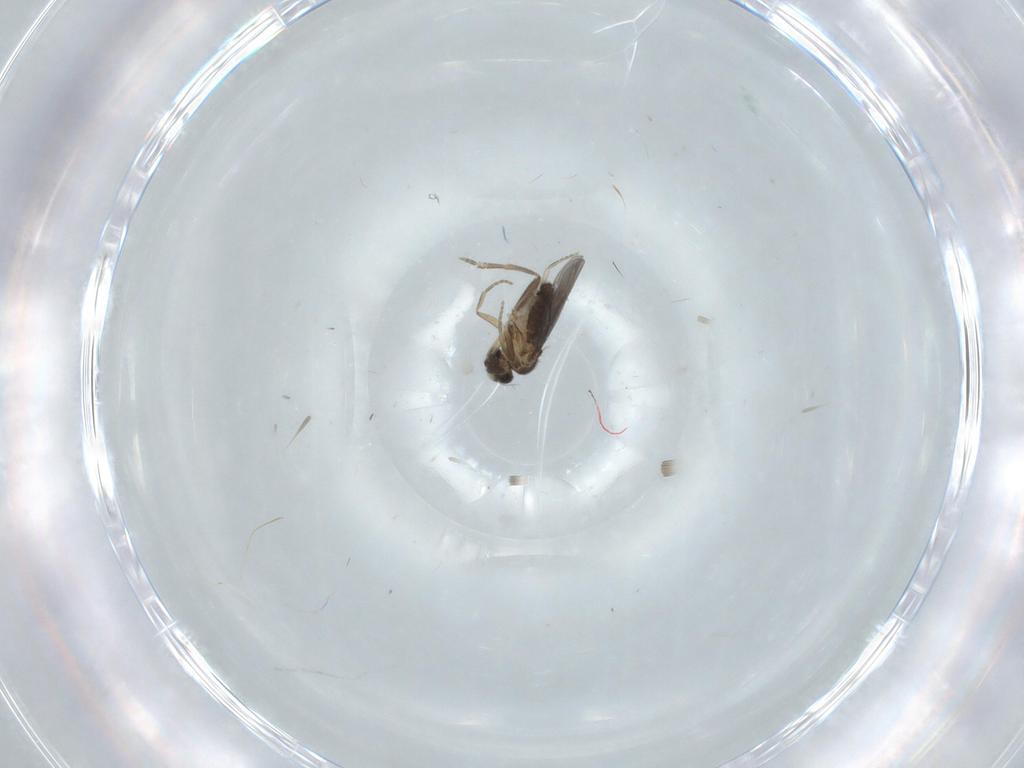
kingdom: Animalia
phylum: Arthropoda
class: Insecta
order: Diptera
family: Phoridae
